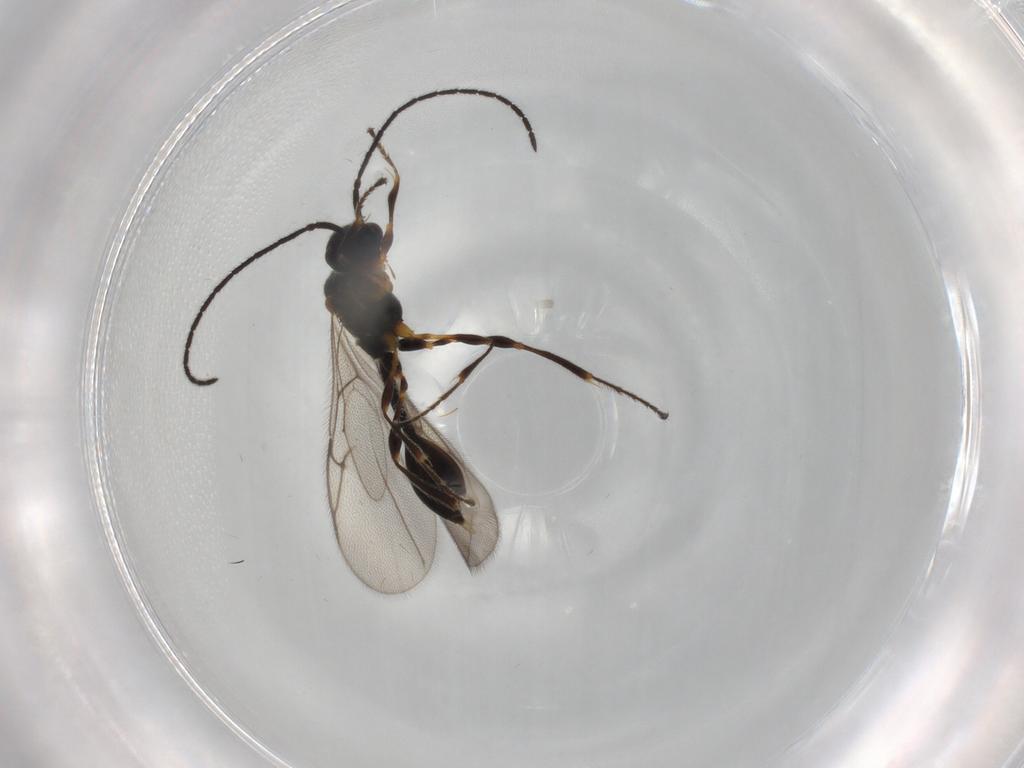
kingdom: Animalia
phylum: Arthropoda
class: Insecta
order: Hymenoptera
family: Diapriidae
